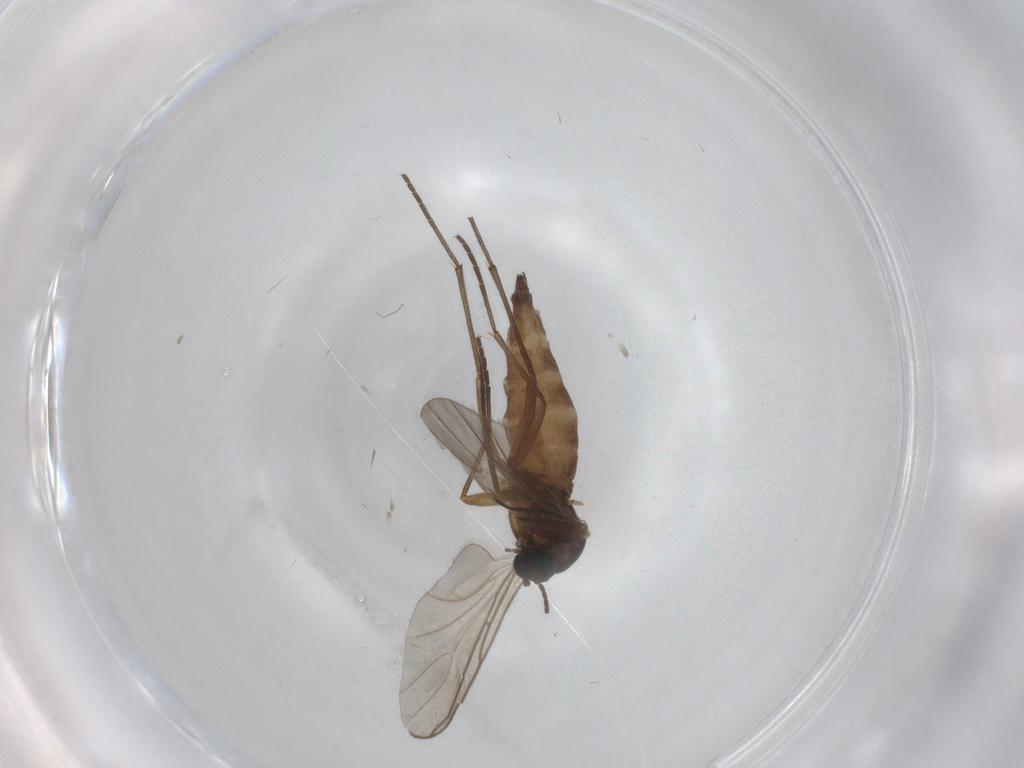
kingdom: Animalia
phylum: Arthropoda
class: Insecta
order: Diptera
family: Sciaridae
